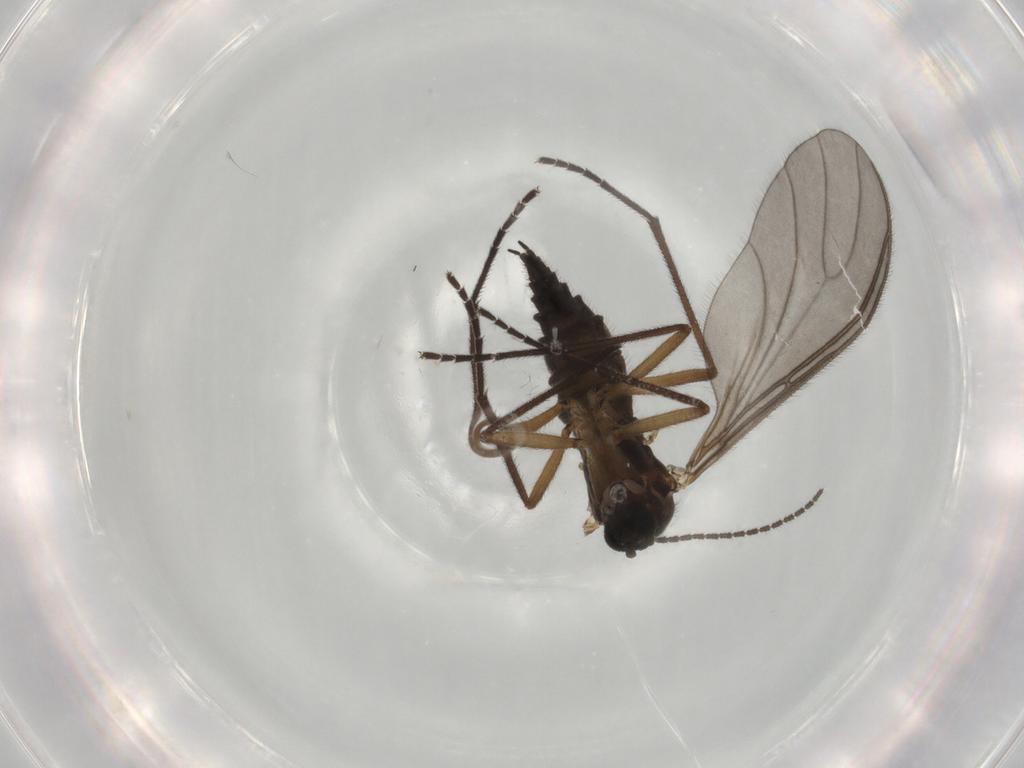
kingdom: Animalia
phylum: Arthropoda
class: Insecta
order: Diptera
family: Sciaridae
